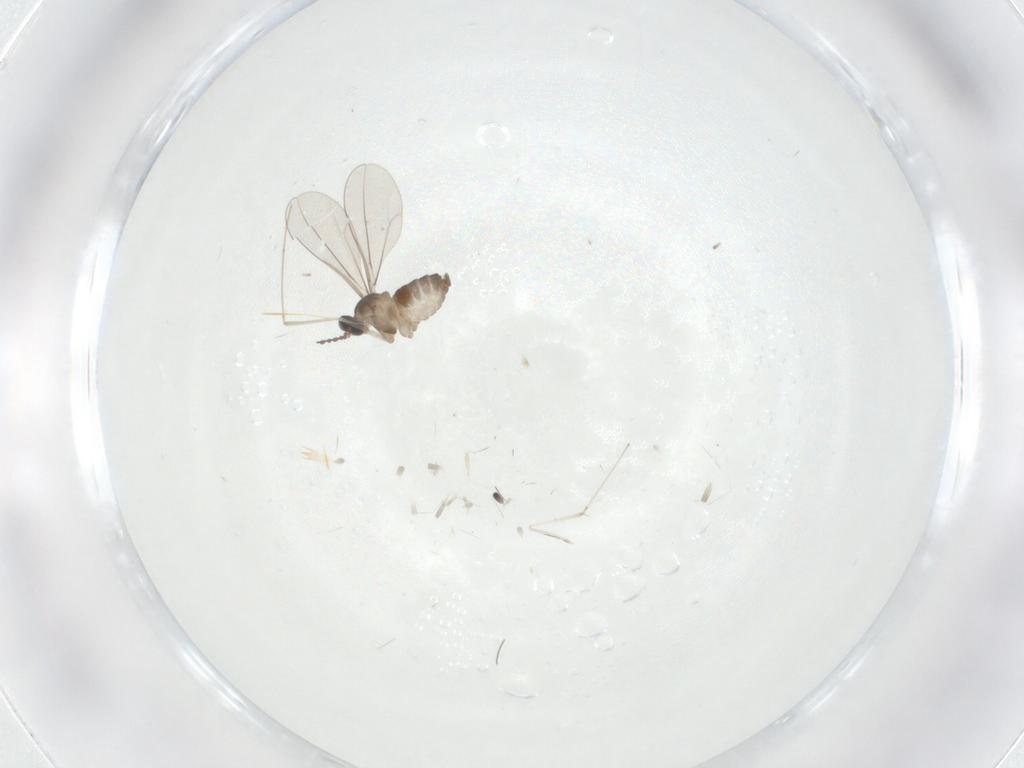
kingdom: Animalia
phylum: Arthropoda
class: Insecta
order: Diptera
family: Cecidomyiidae
